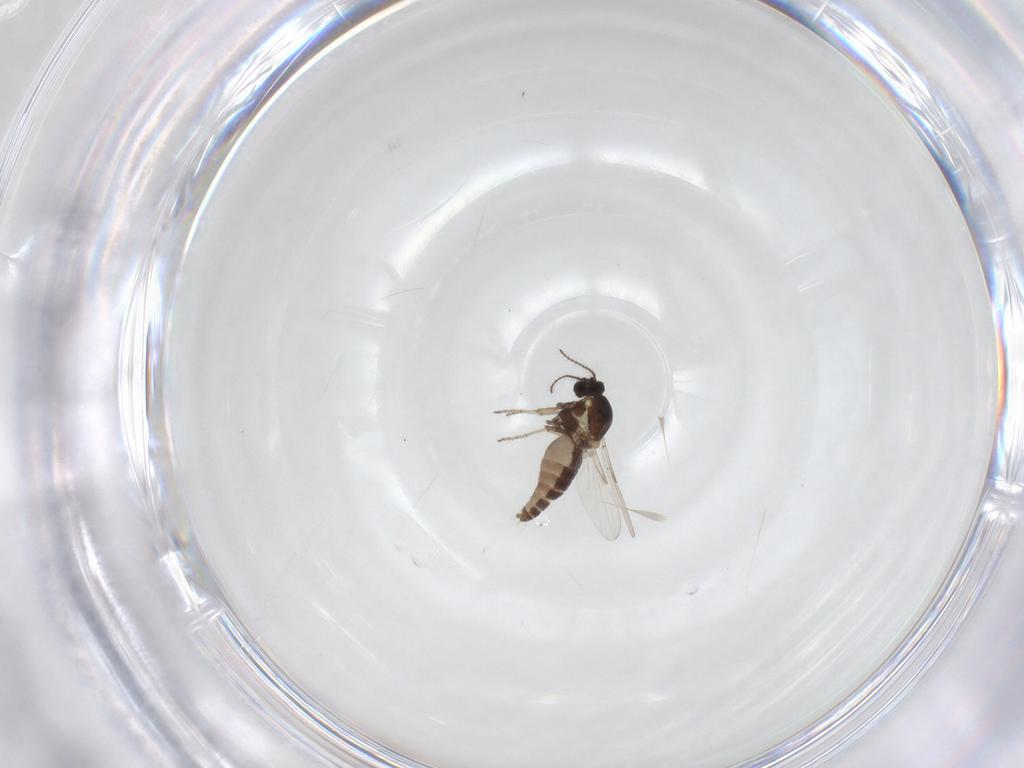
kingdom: Animalia
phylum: Arthropoda
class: Insecta
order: Diptera
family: Ceratopogonidae
